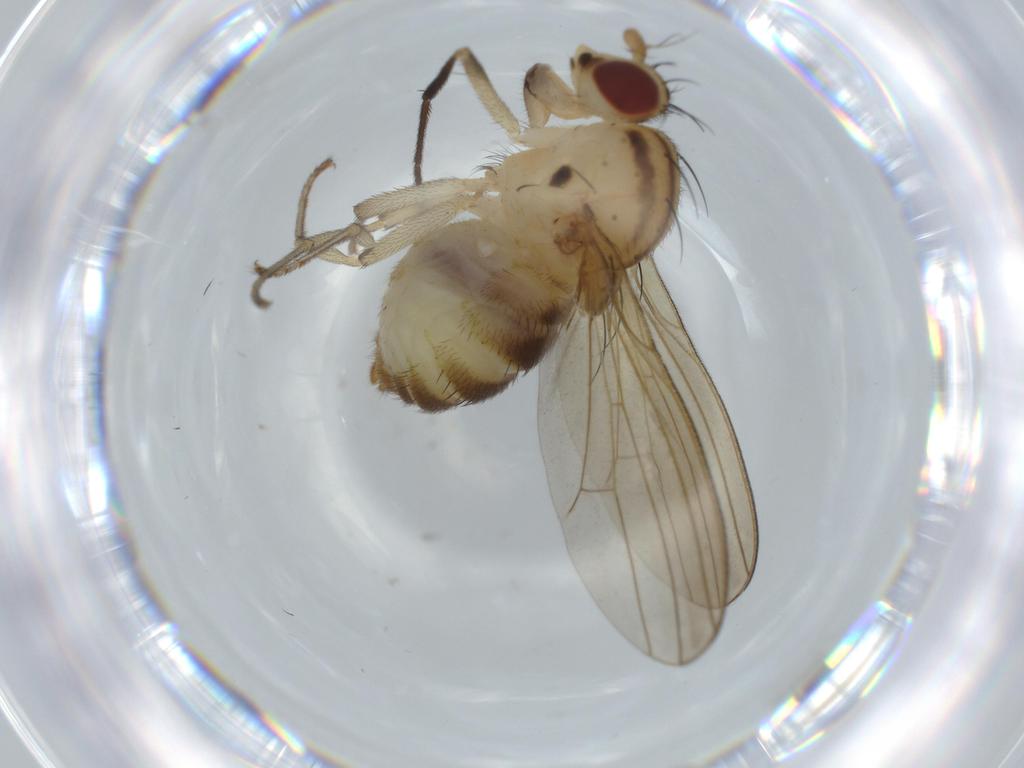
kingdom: Animalia
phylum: Arthropoda
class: Insecta
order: Diptera
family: Lauxaniidae
